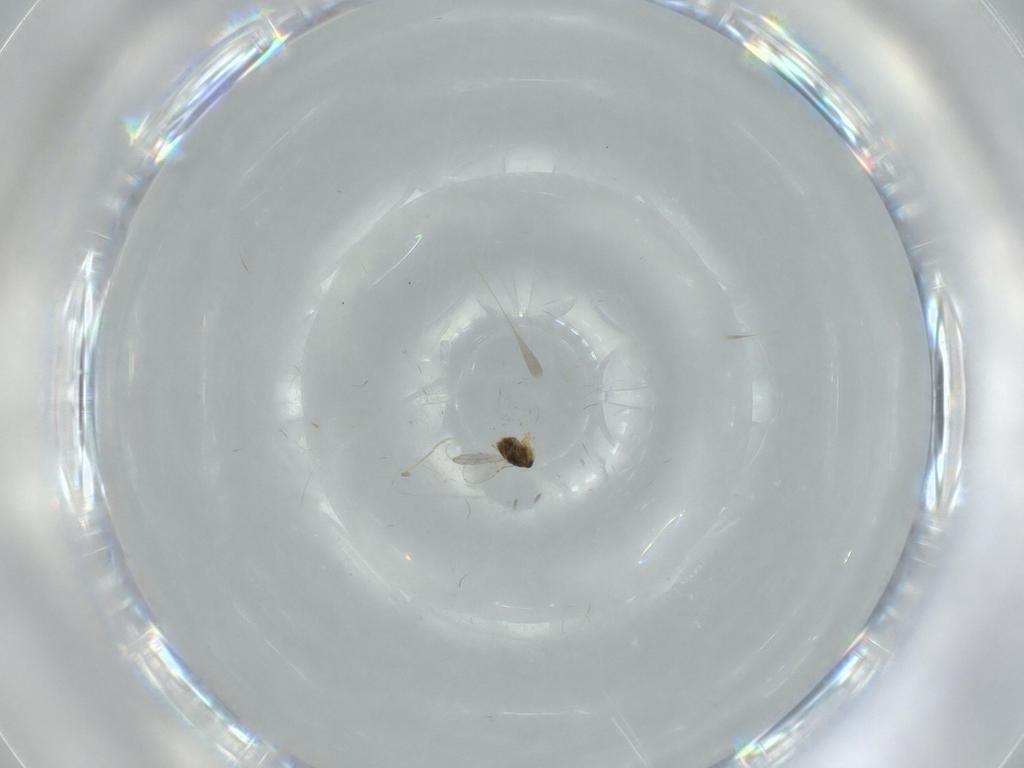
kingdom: Animalia
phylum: Arthropoda
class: Insecta
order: Hymenoptera
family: Encyrtidae
